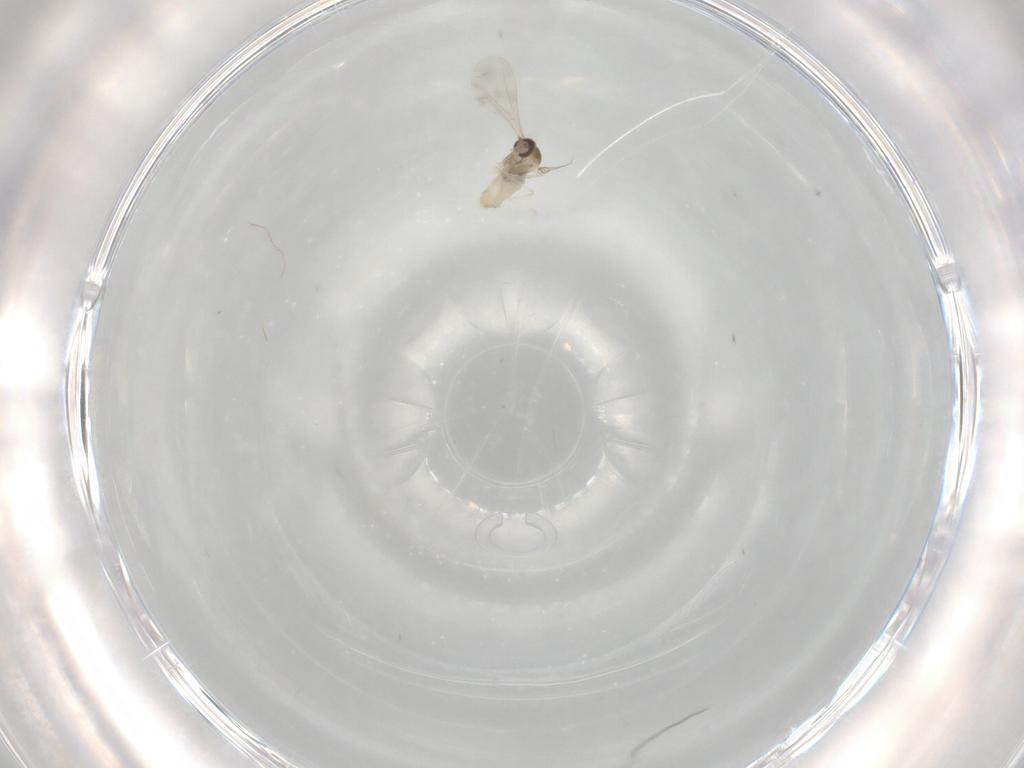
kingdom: Animalia
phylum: Arthropoda
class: Insecta
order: Diptera
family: Cecidomyiidae
